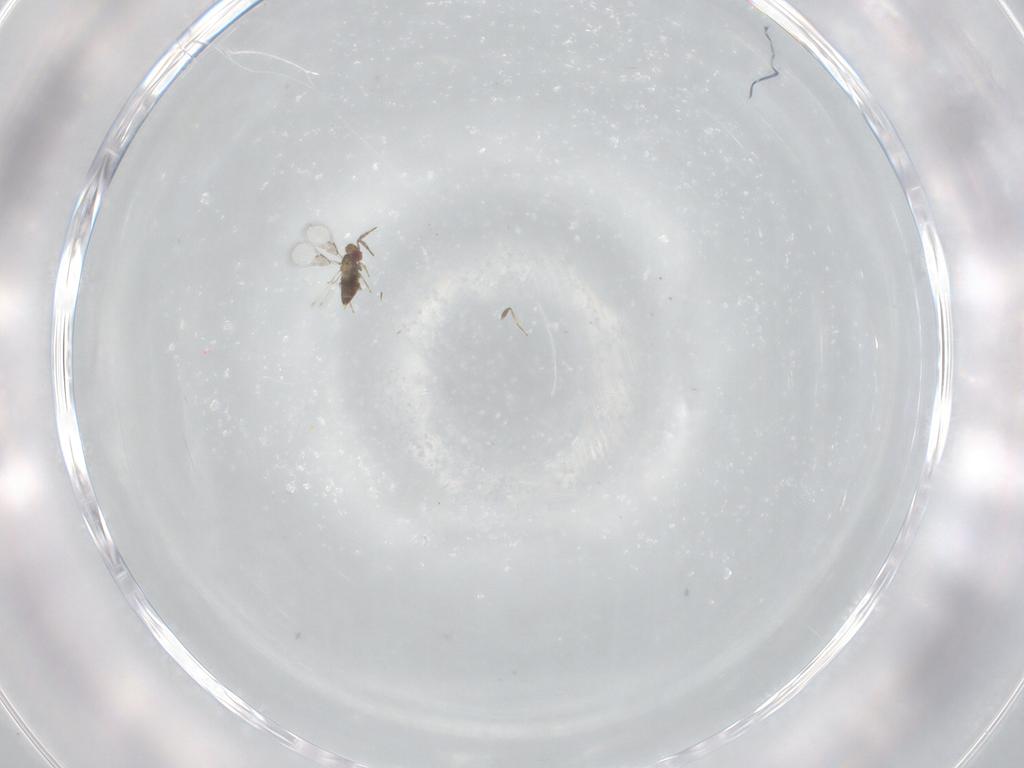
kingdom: Animalia
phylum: Arthropoda
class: Insecta
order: Hymenoptera
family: Trichogrammatidae
